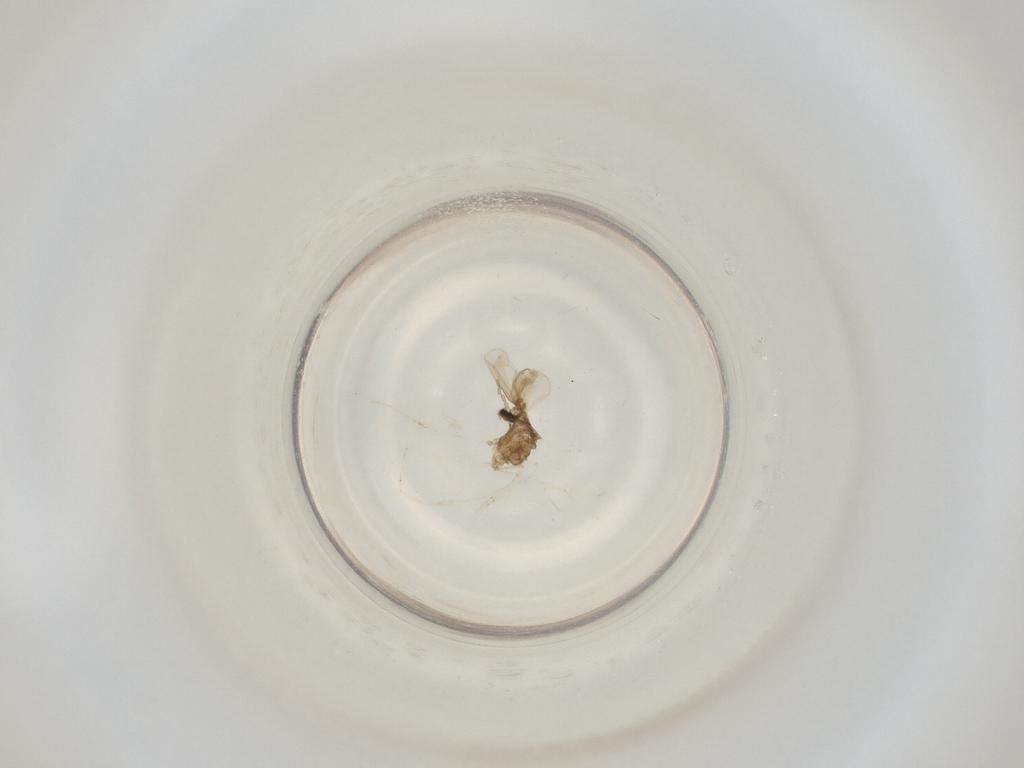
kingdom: Animalia
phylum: Arthropoda
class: Insecta
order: Diptera
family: Cecidomyiidae
